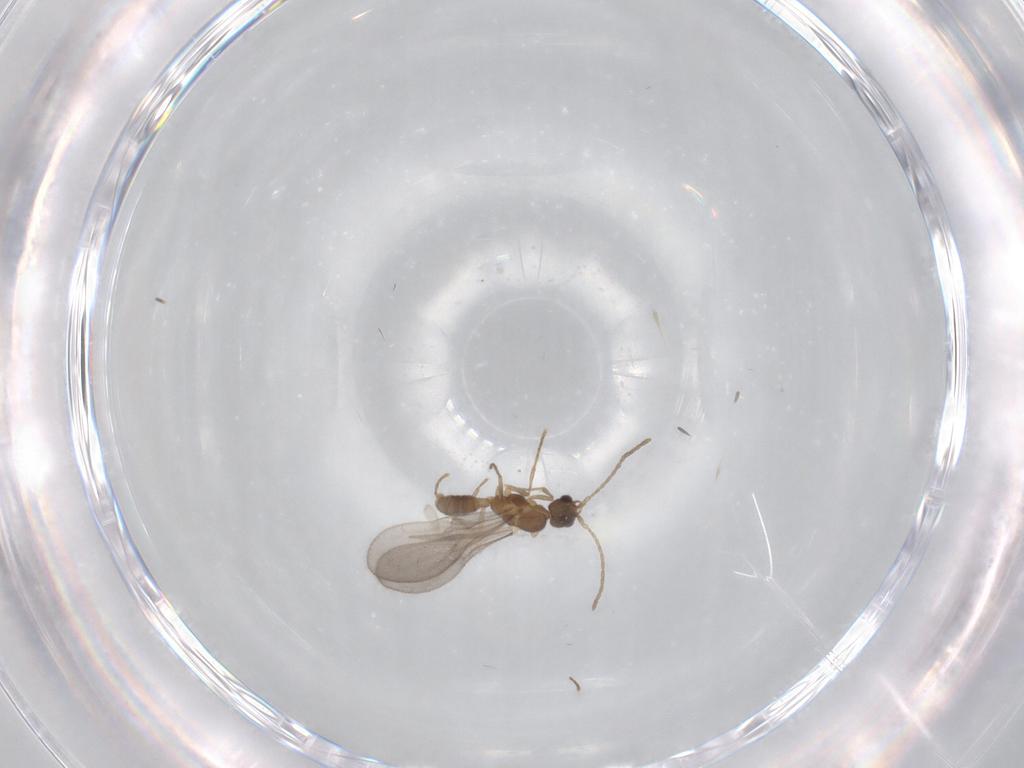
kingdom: Animalia
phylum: Arthropoda
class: Insecta
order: Hymenoptera
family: Formicidae
